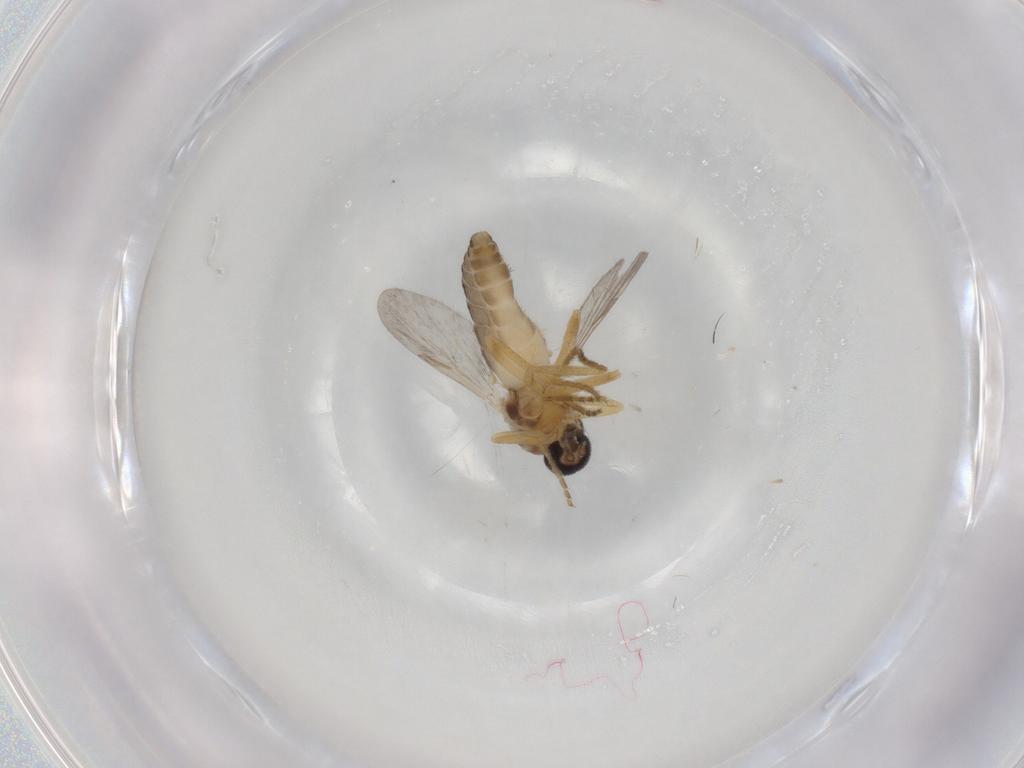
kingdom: Animalia
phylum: Arthropoda
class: Insecta
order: Diptera
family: Ceratopogonidae
